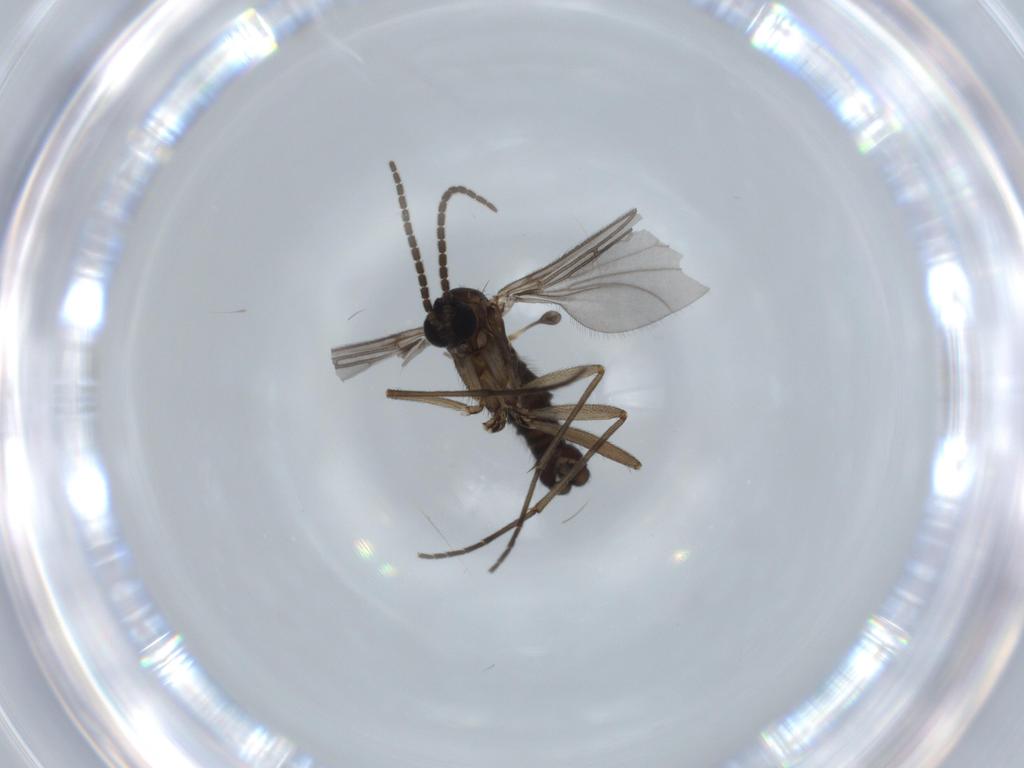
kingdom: Animalia
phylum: Arthropoda
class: Insecta
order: Diptera
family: Sciaridae
